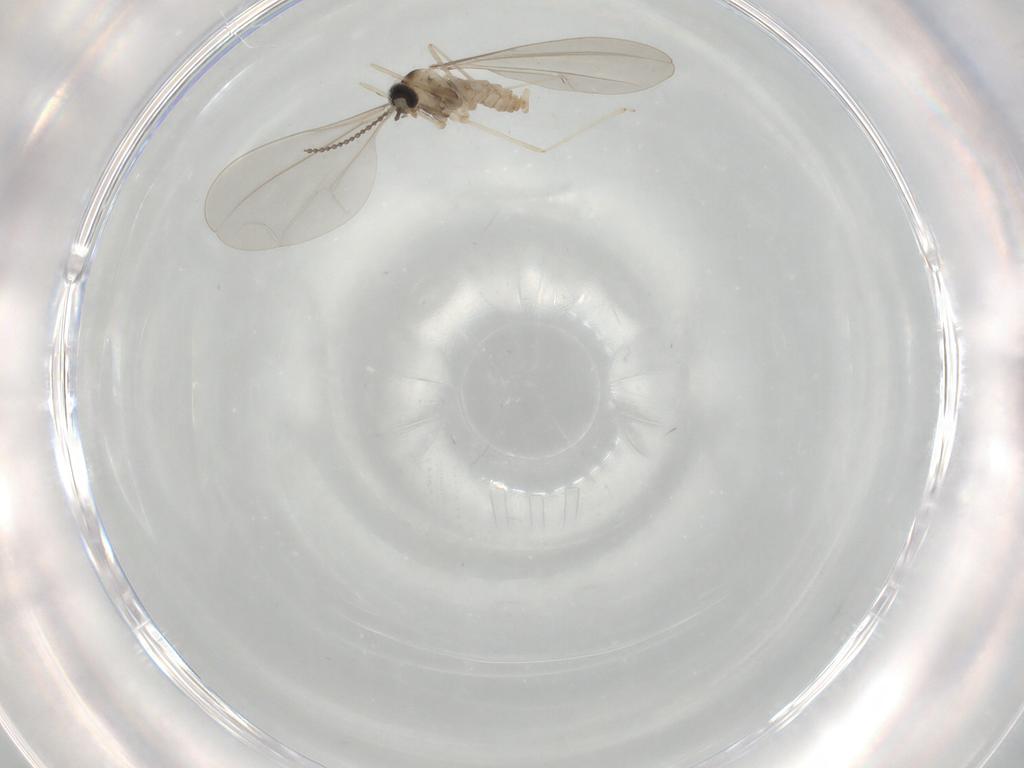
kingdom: Animalia
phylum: Arthropoda
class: Insecta
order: Diptera
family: Cecidomyiidae
